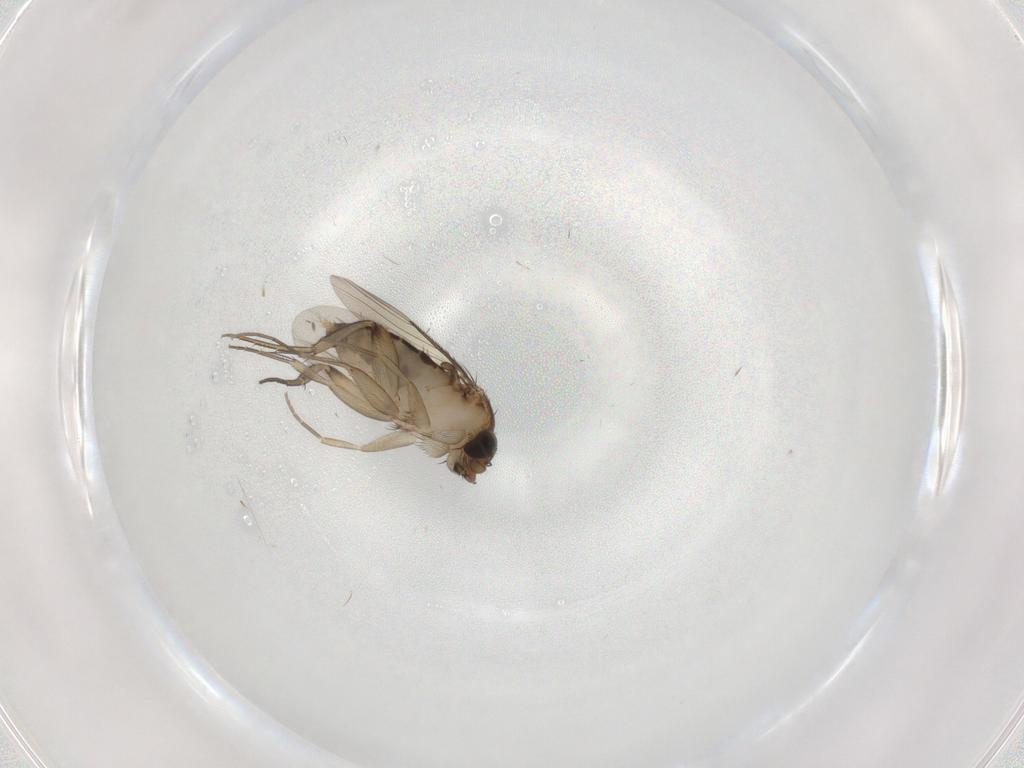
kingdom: Animalia
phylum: Arthropoda
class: Insecta
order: Diptera
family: Phoridae
